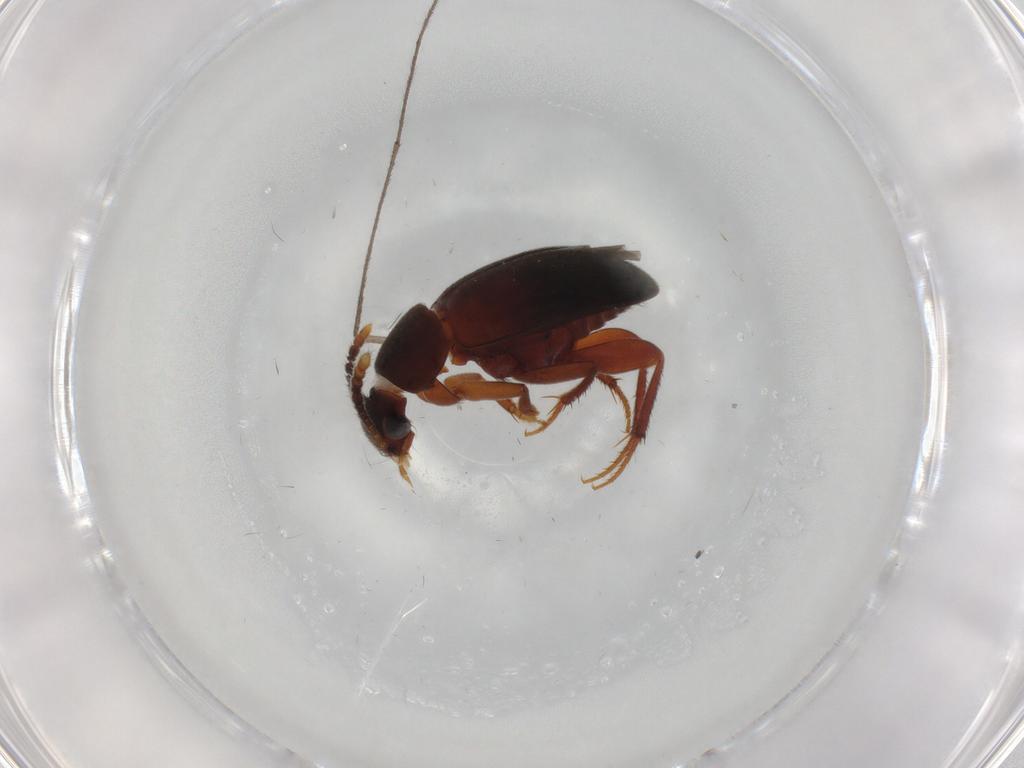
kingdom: Animalia
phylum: Arthropoda
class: Insecta
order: Coleoptera
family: Leiodidae
